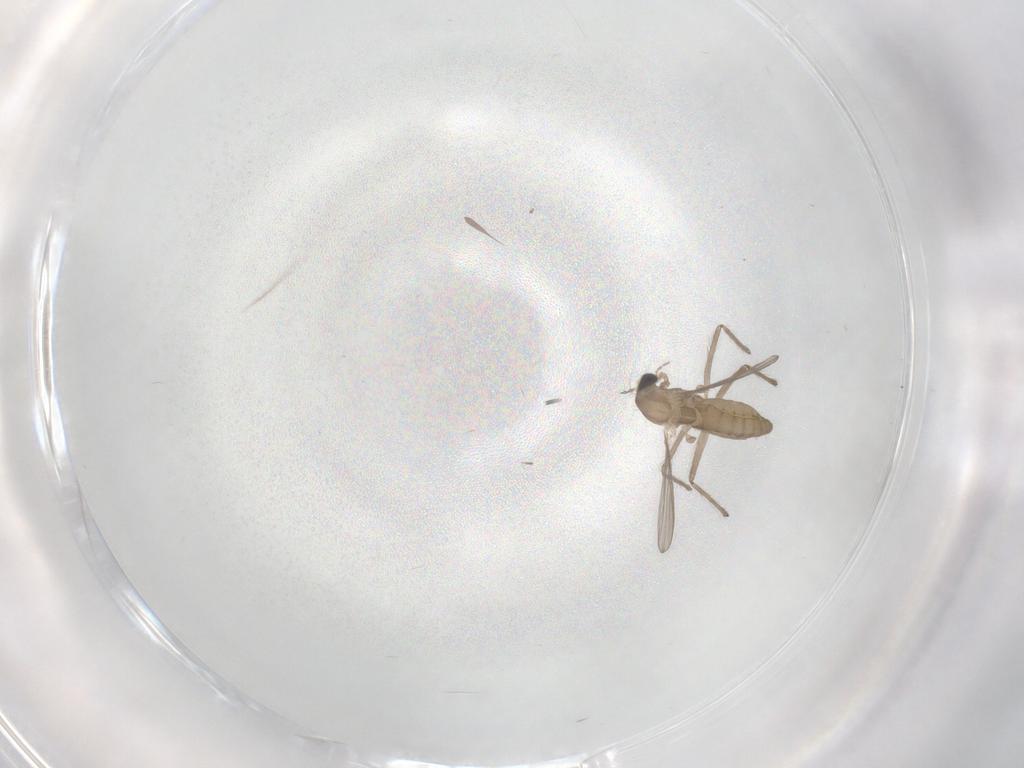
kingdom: Animalia
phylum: Arthropoda
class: Insecta
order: Diptera
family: Chironomidae
